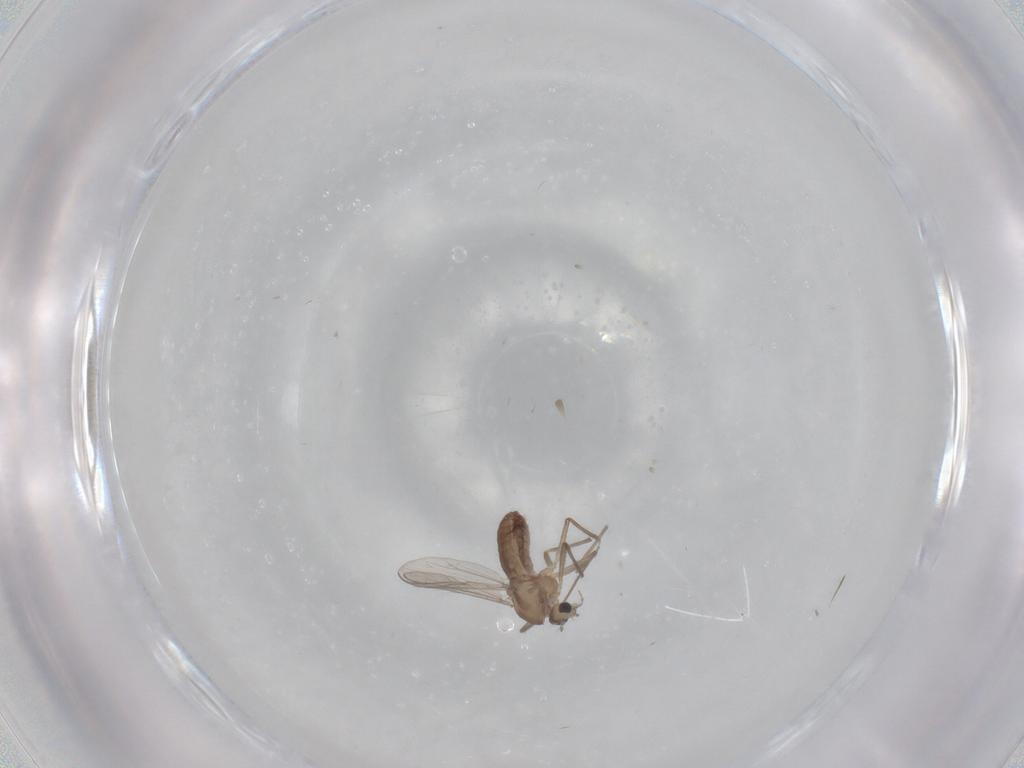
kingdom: Animalia
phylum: Arthropoda
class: Insecta
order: Diptera
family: Chironomidae
